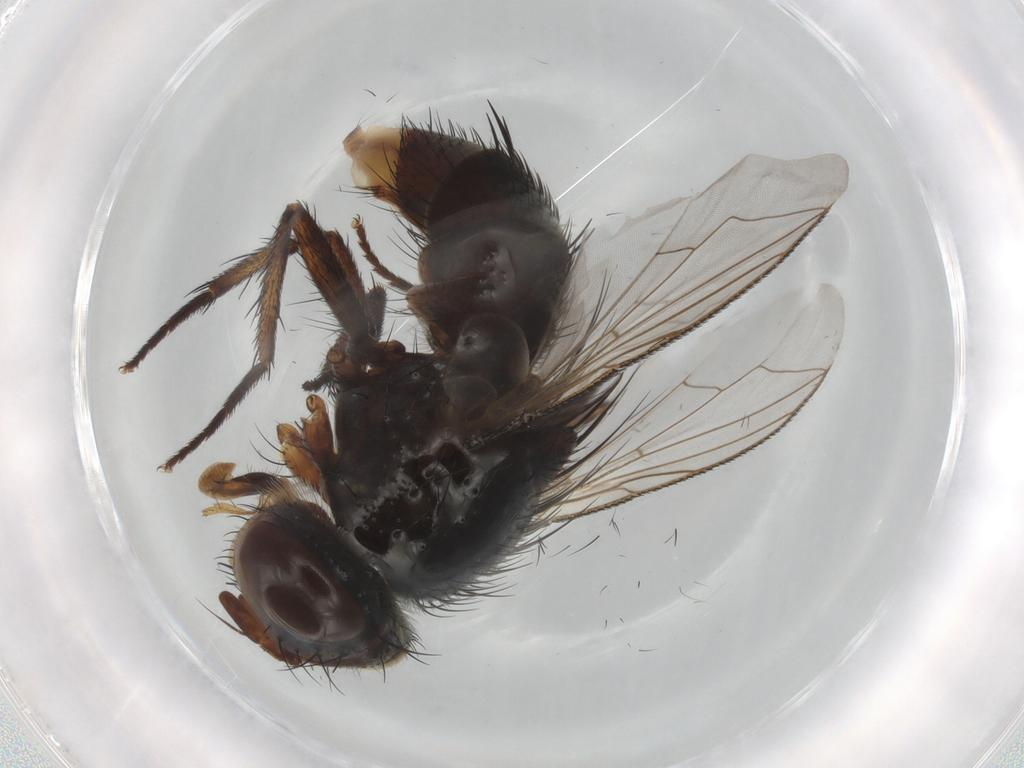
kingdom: Animalia
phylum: Arthropoda
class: Insecta
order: Diptera
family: Tachinidae
